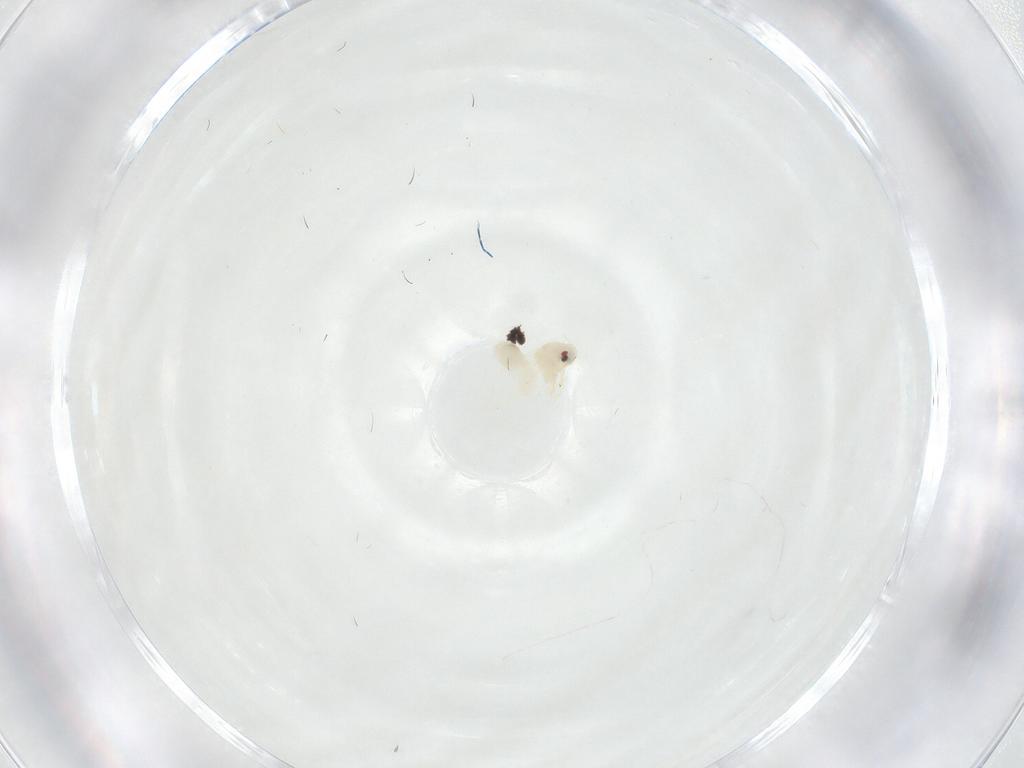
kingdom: Animalia
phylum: Arthropoda
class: Insecta
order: Hemiptera
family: Aleyrodidae
